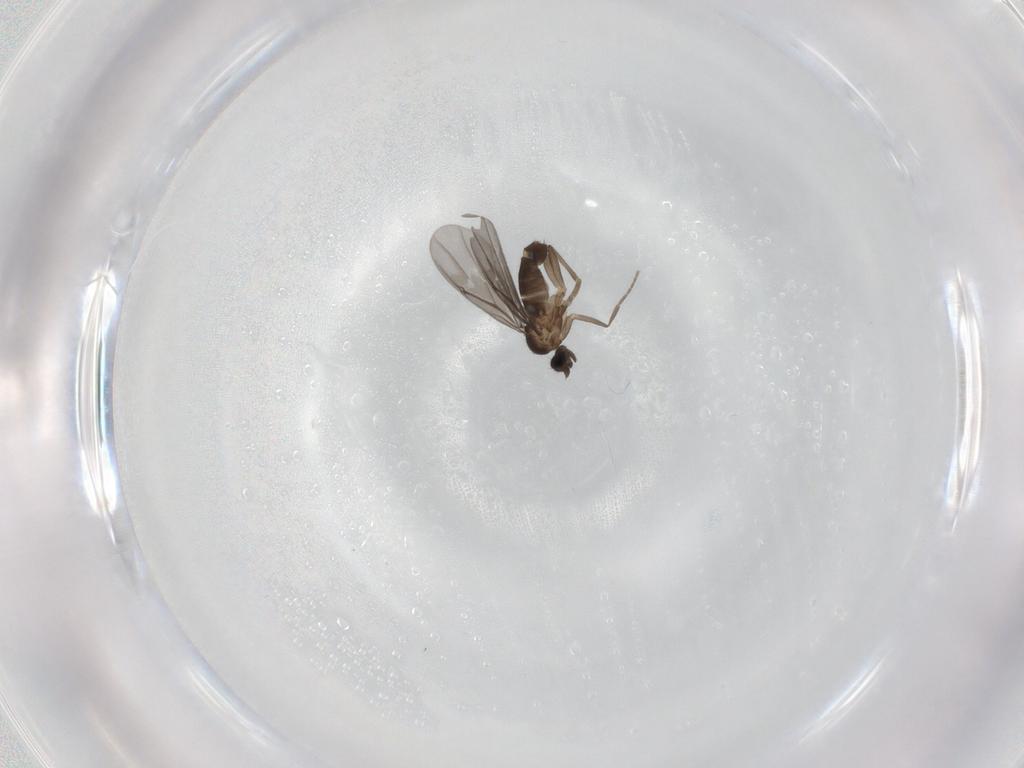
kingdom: Animalia
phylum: Arthropoda
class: Insecta
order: Diptera
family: Phoridae
